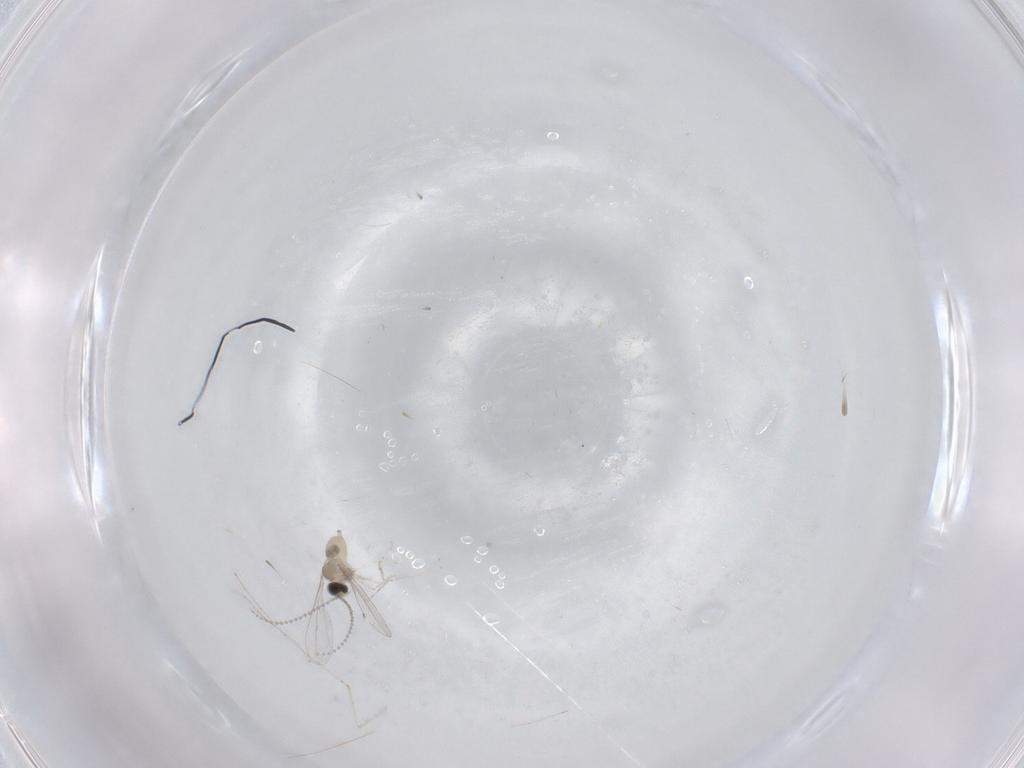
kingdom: Animalia
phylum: Arthropoda
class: Insecta
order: Diptera
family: Cecidomyiidae
